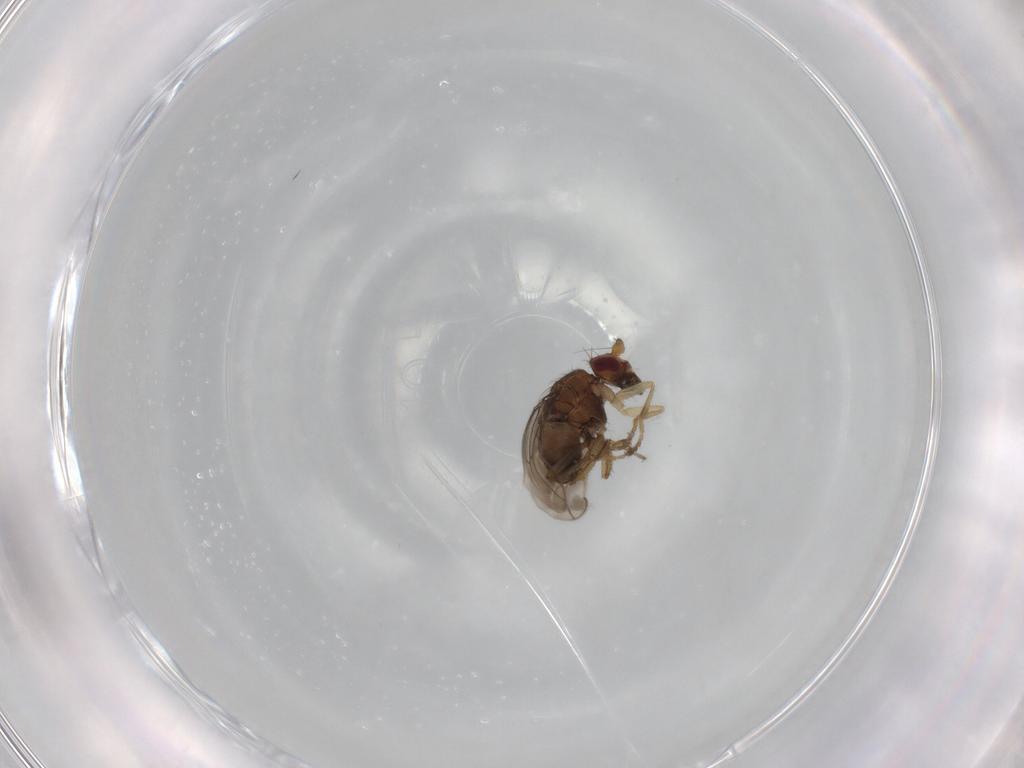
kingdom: Animalia
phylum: Arthropoda
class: Insecta
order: Diptera
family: Sphaeroceridae
